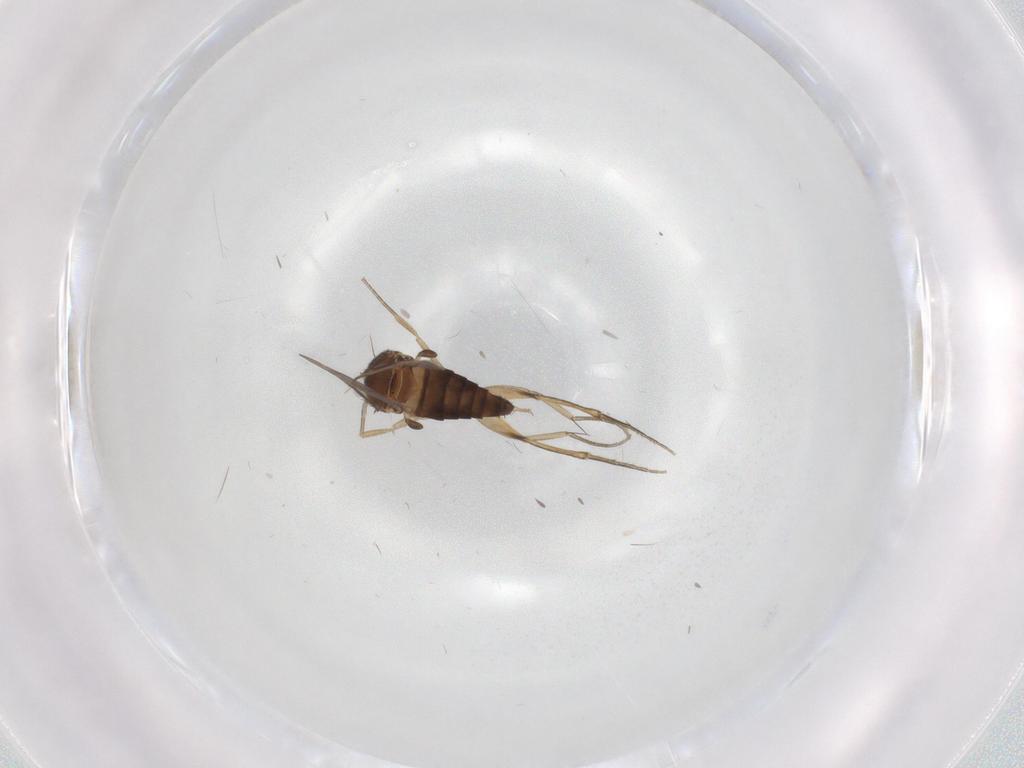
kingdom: Animalia
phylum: Arthropoda
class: Insecta
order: Diptera
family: Phoridae
